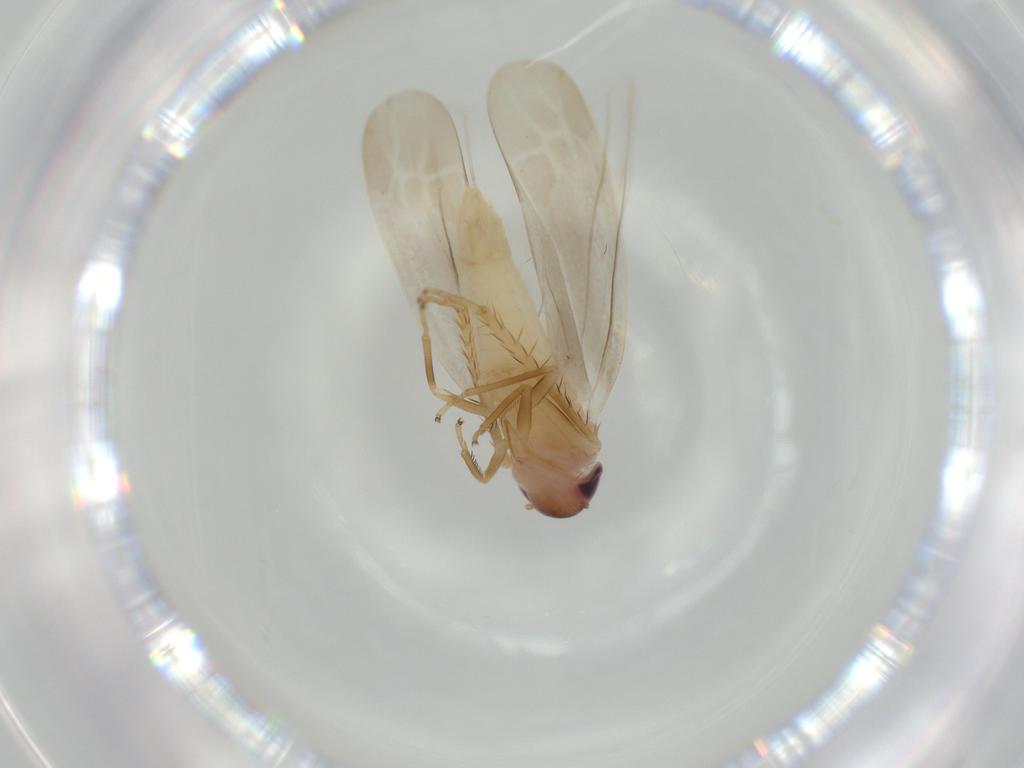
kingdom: Animalia
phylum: Arthropoda
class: Insecta
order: Hemiptera
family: Cicadellidae
